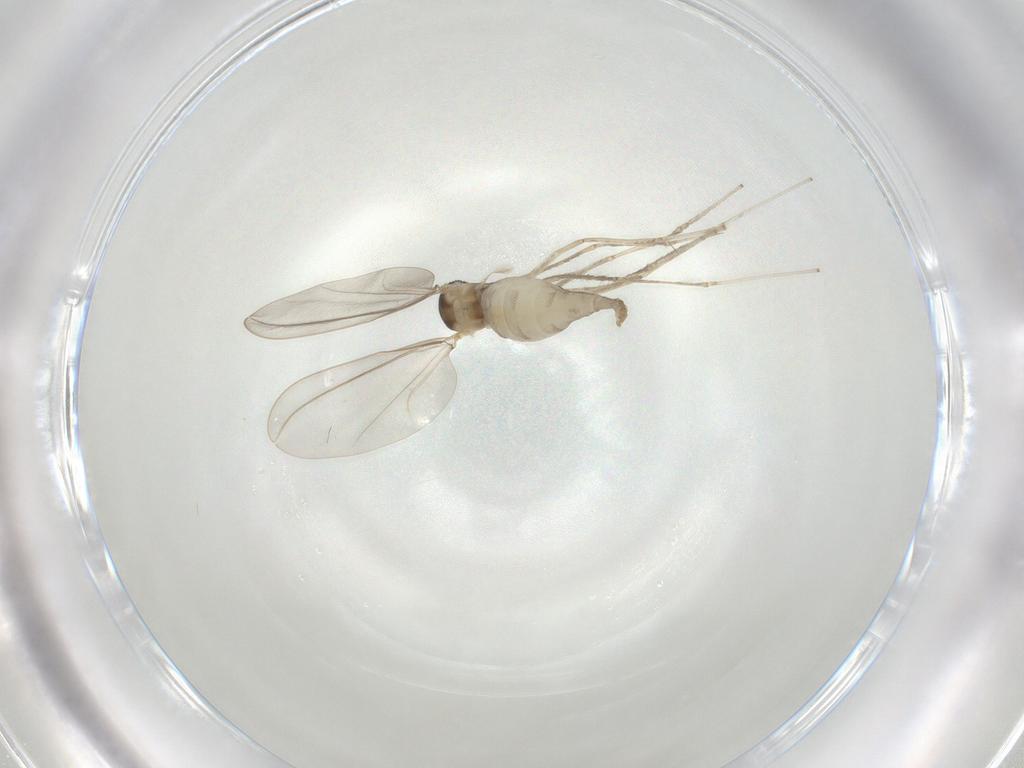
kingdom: Animalia
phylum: Arthropoda
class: Insecta
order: Diptera
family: Cecidomyiidae
